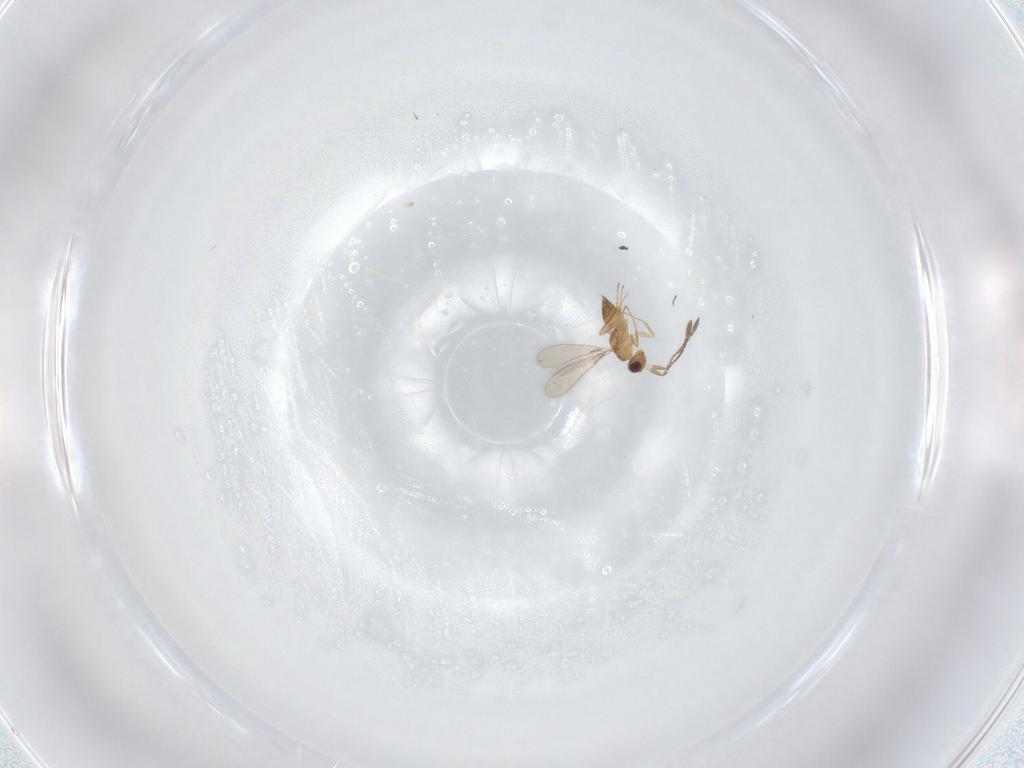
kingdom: Animalia
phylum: Arthropoda
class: Insecta
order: Hymenoptera
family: Mymaridae
